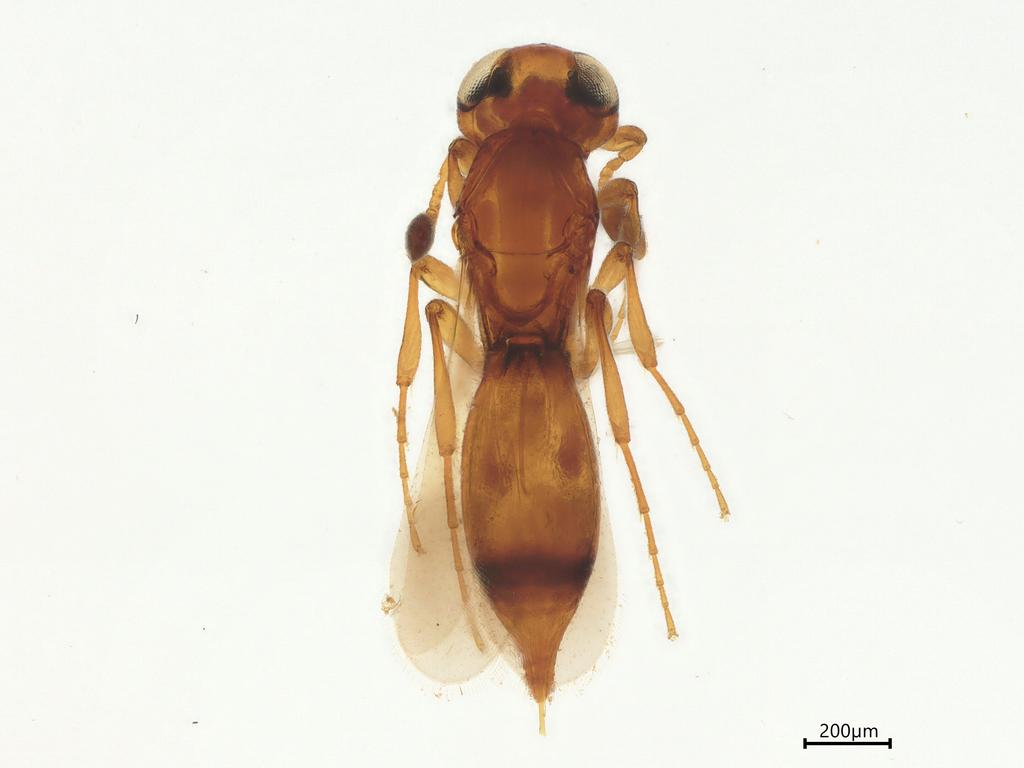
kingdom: Animalia
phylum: Arthropoda
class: Insecta
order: Hymenoptera
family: Platygastridae
